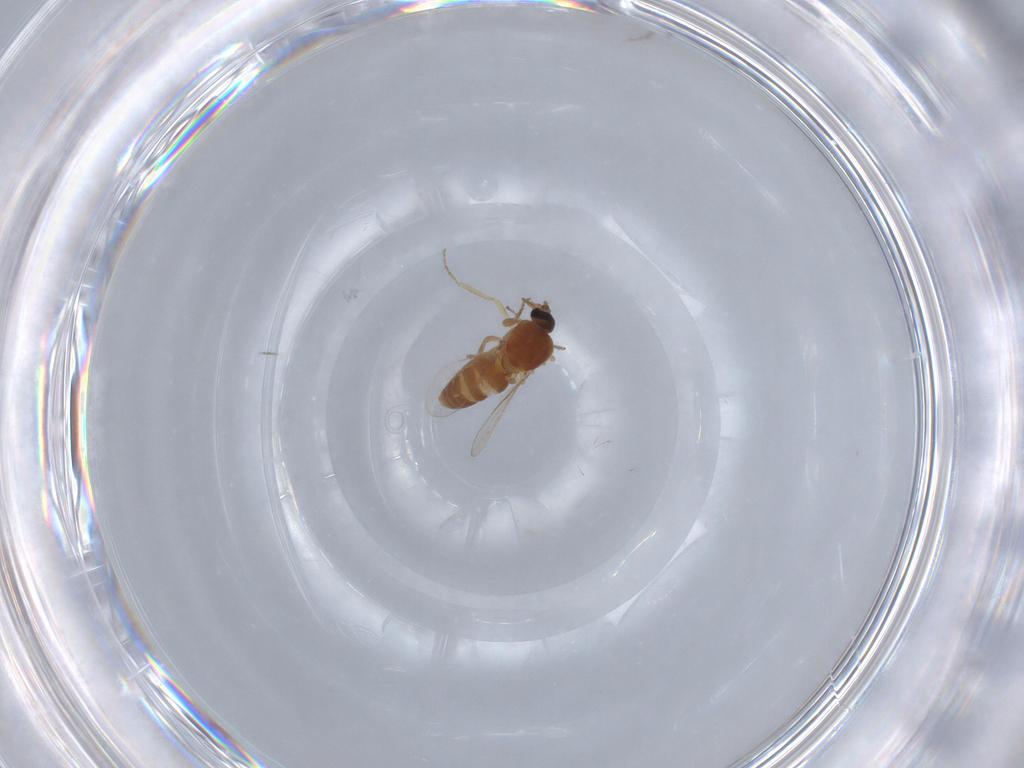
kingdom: Animalia
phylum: Arthropoda
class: Insecta
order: Diptera
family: Ceratopogonidae
